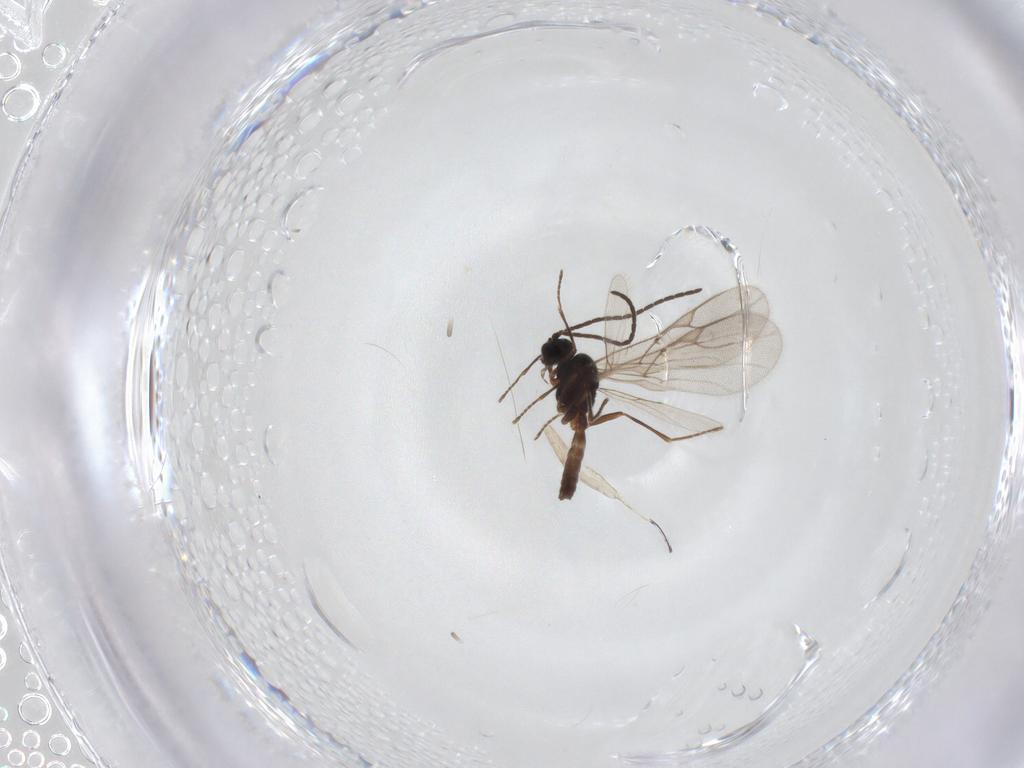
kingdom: Animalia
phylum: Arthropoda
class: Insecta
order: Hymenoptera
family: Braconidae
